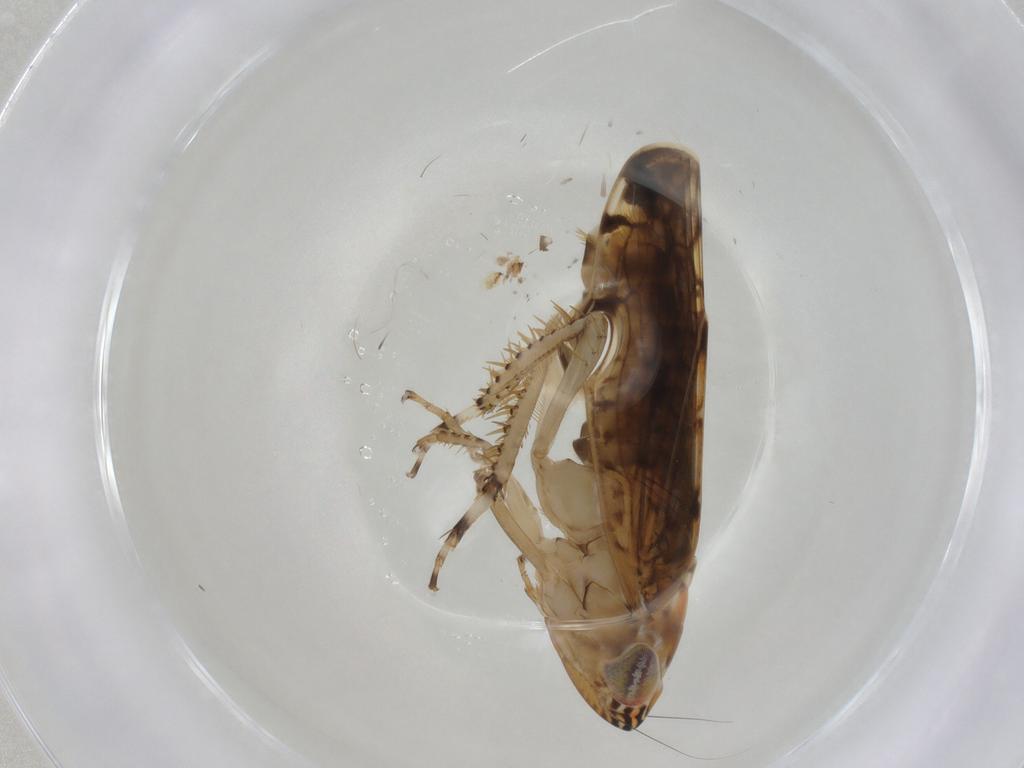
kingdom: Animalia
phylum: Arthropoda
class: Insecta
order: Hemiptera
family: Cicadellidae
